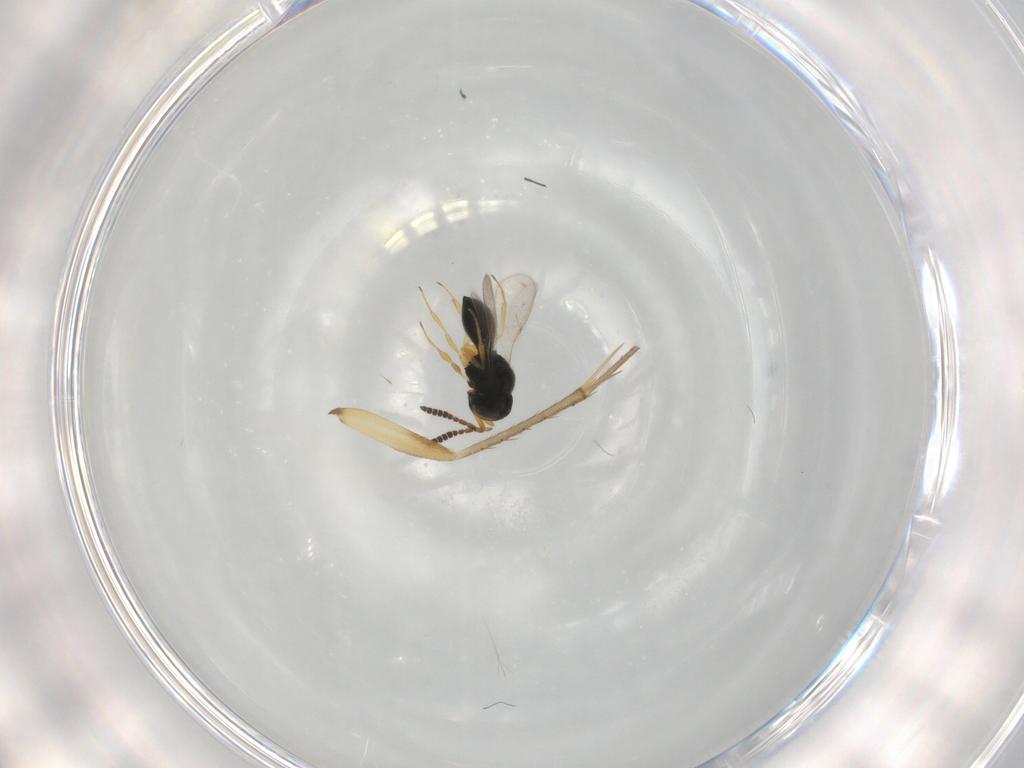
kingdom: Animalia
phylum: Arthropoda
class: Insecta
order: Hymenoptera
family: Scelionidae
